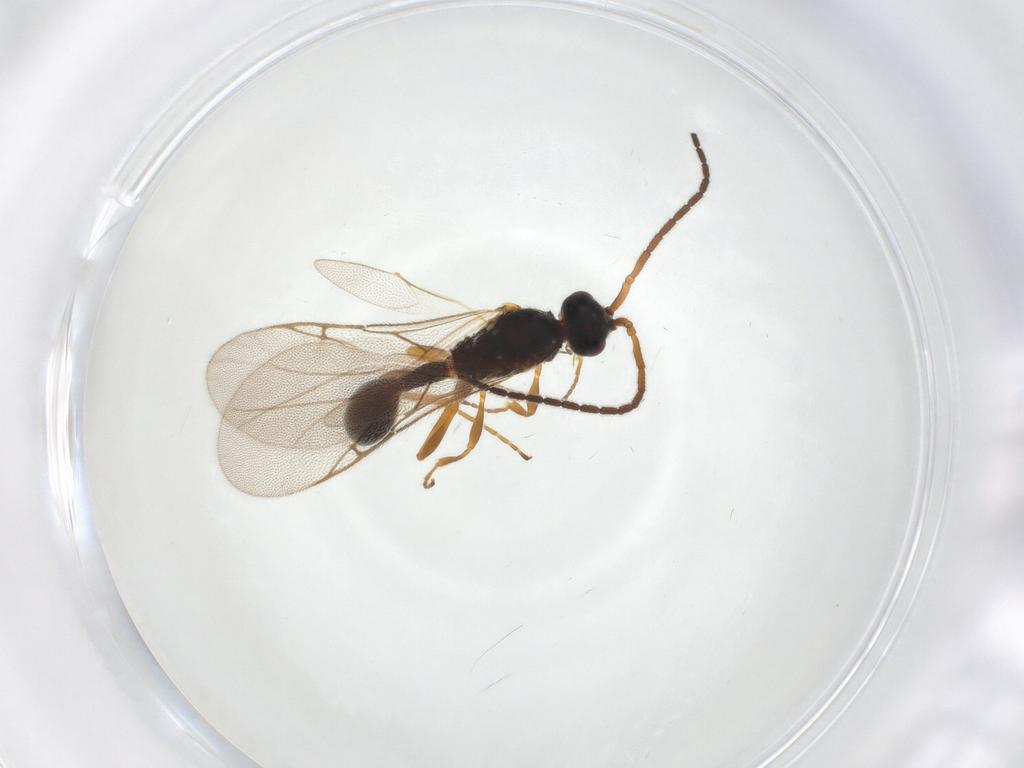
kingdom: Animalia
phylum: Arthropoda
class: Insecta
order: Hymenoptera
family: Diapriidae
